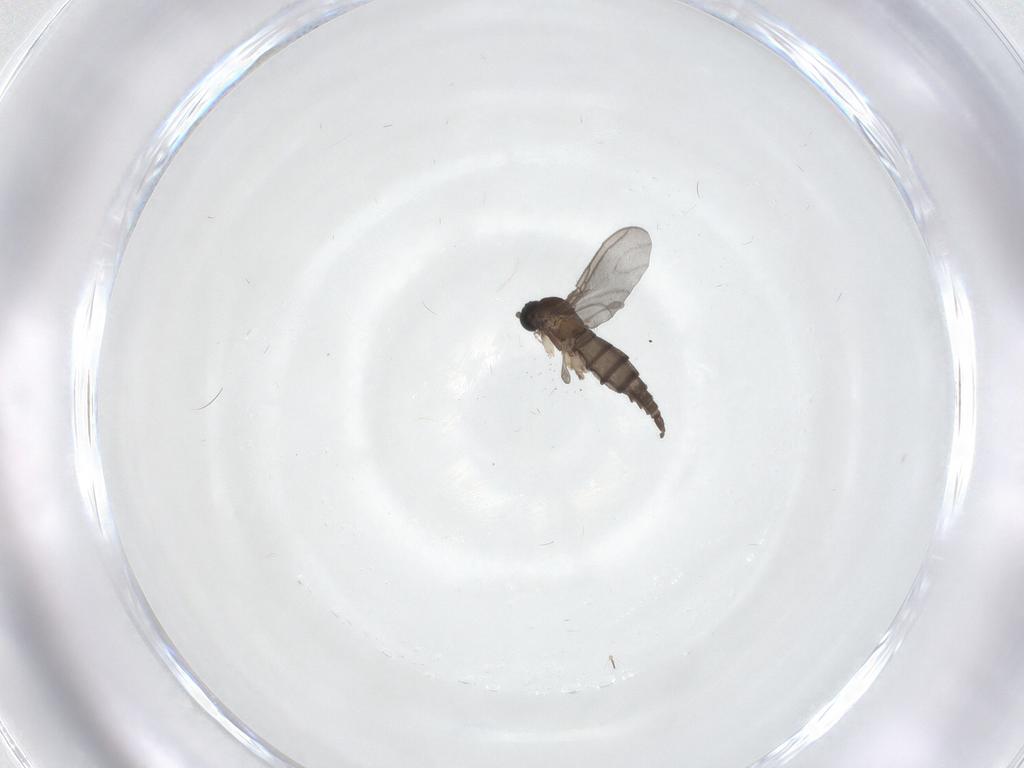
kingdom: Animalia
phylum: Arthropoda
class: Insecta
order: Diptera
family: Sciaridae
